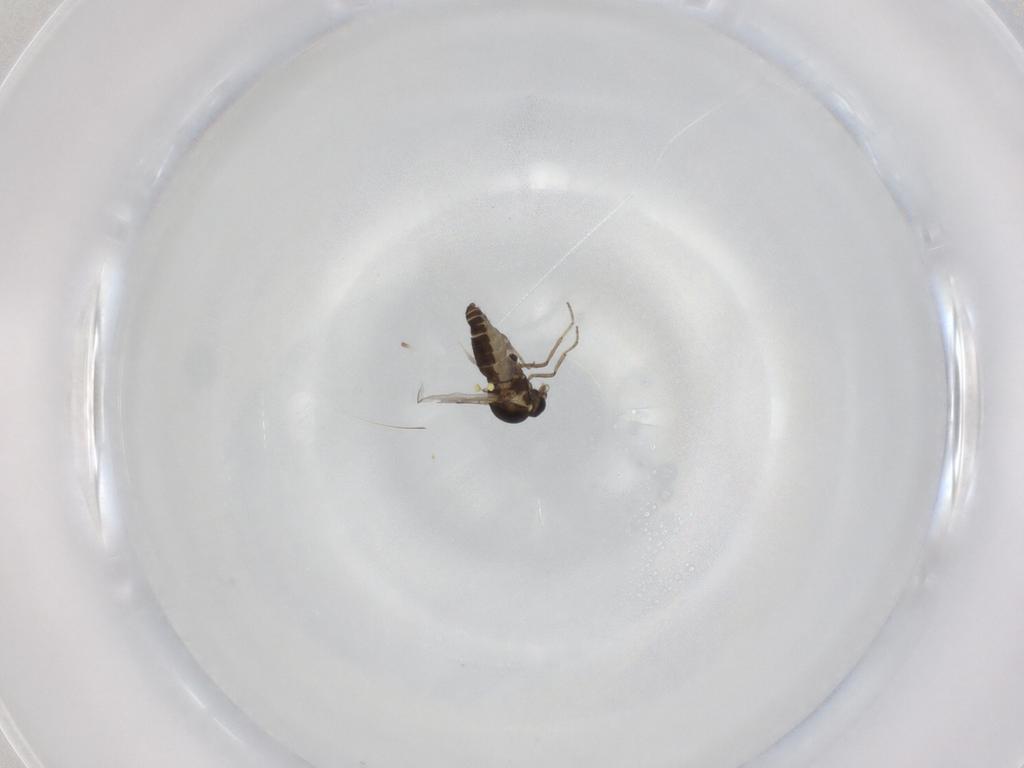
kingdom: Animalia
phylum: Arthropoda
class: Insecta
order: Diptera
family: Ceratopogonidae
